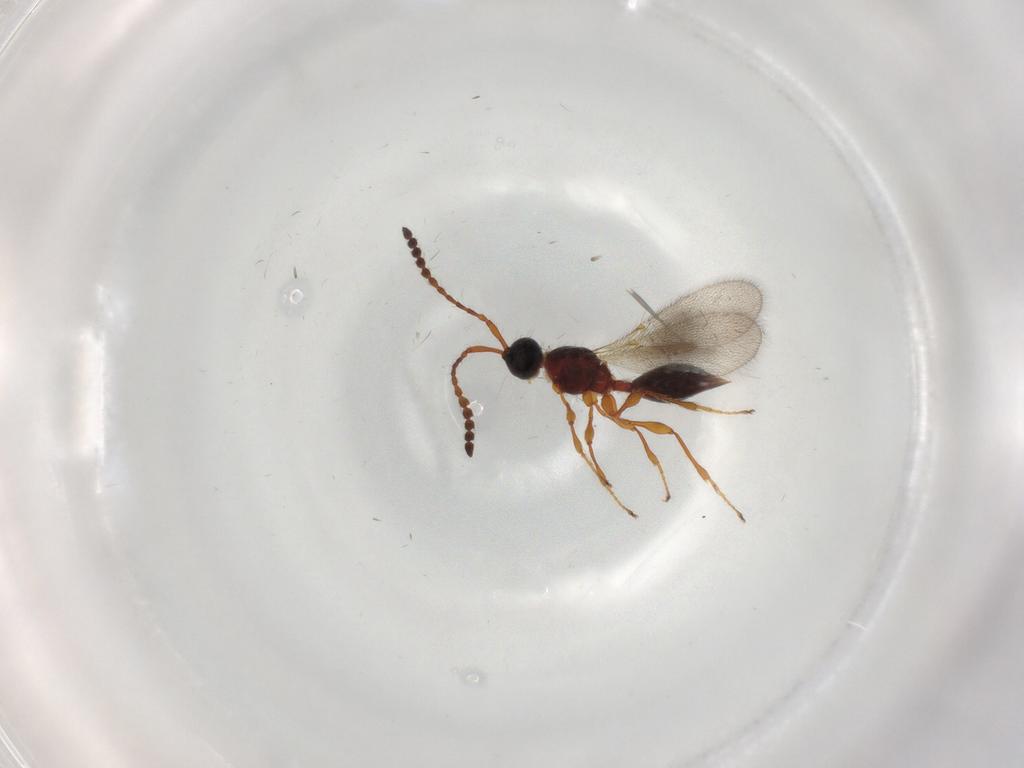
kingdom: Animalia
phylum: Arthropoda
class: Insecta
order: Hymenoptera
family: Diapriidae
